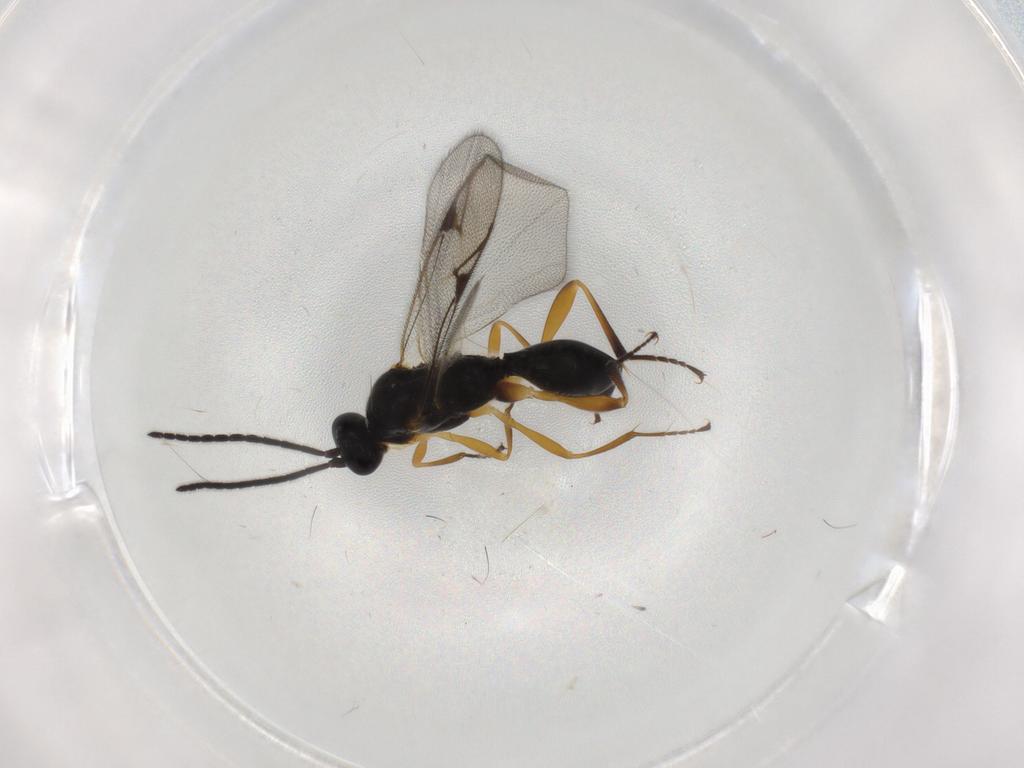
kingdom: Animalia
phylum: Arthropoda
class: Insecta
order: Hymenoptera
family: Proctotrupidae
